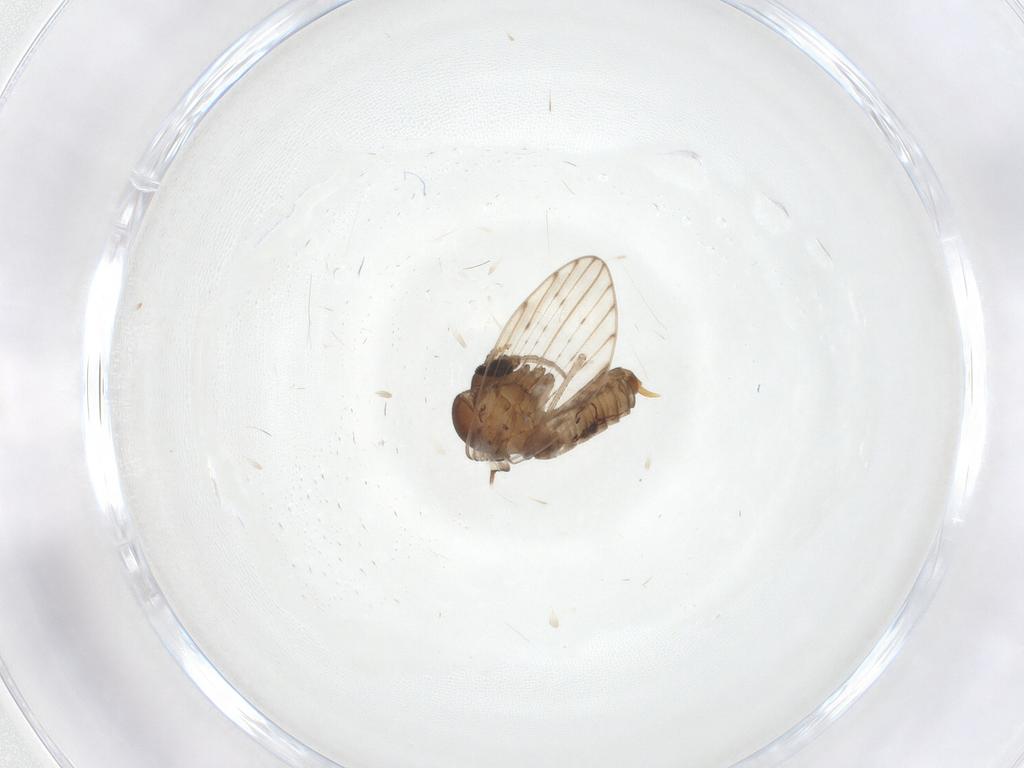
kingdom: Animalia
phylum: Arthropoda
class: Insecta
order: Diptera
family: Psychodidae
